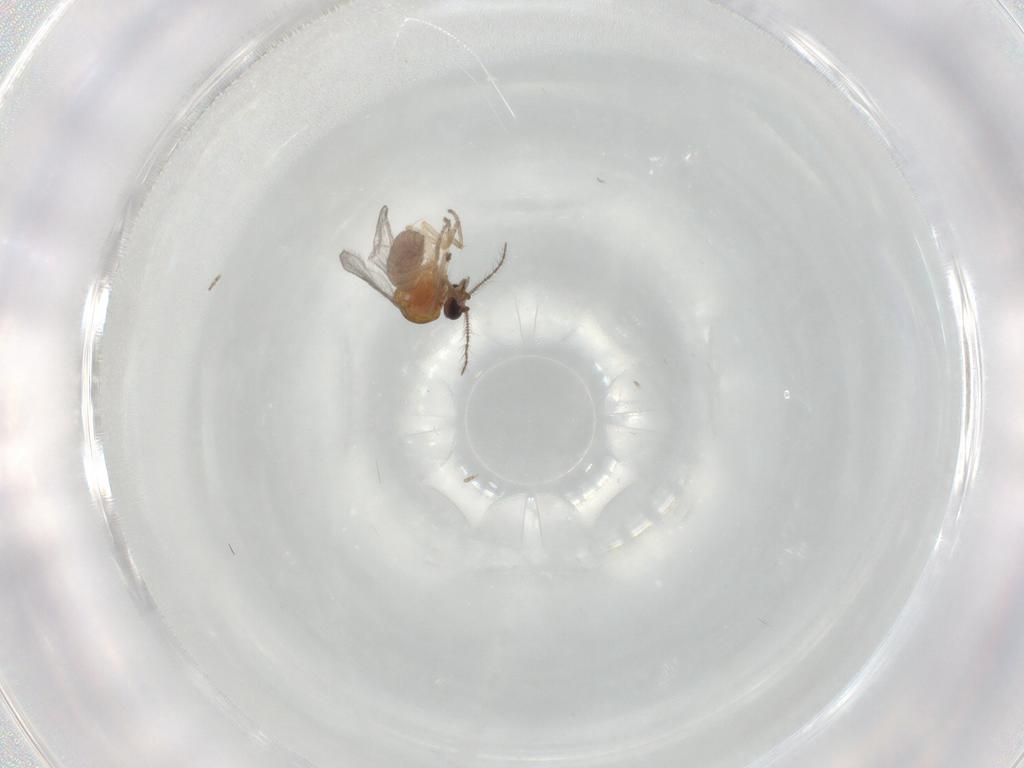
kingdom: Animalia
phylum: Arthropoda
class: Insecta
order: Diptera
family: Ceratopogonidae
